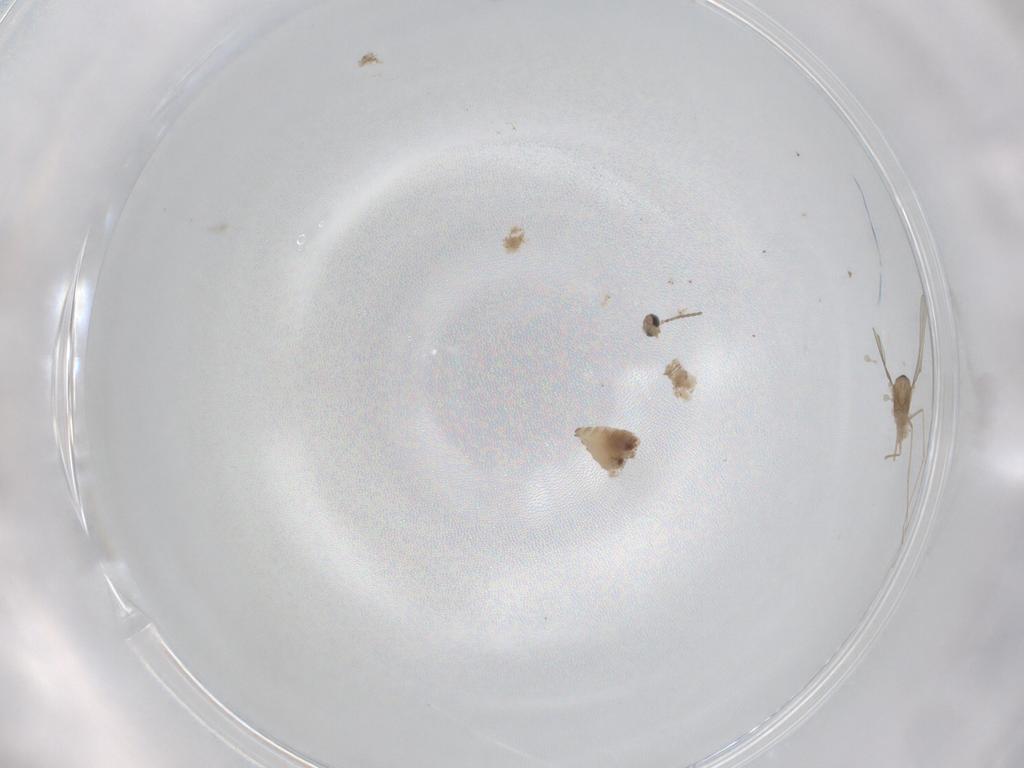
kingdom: Animalia
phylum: Arthropoda
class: Insecta
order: Diptera
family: Cecidomyiidae
